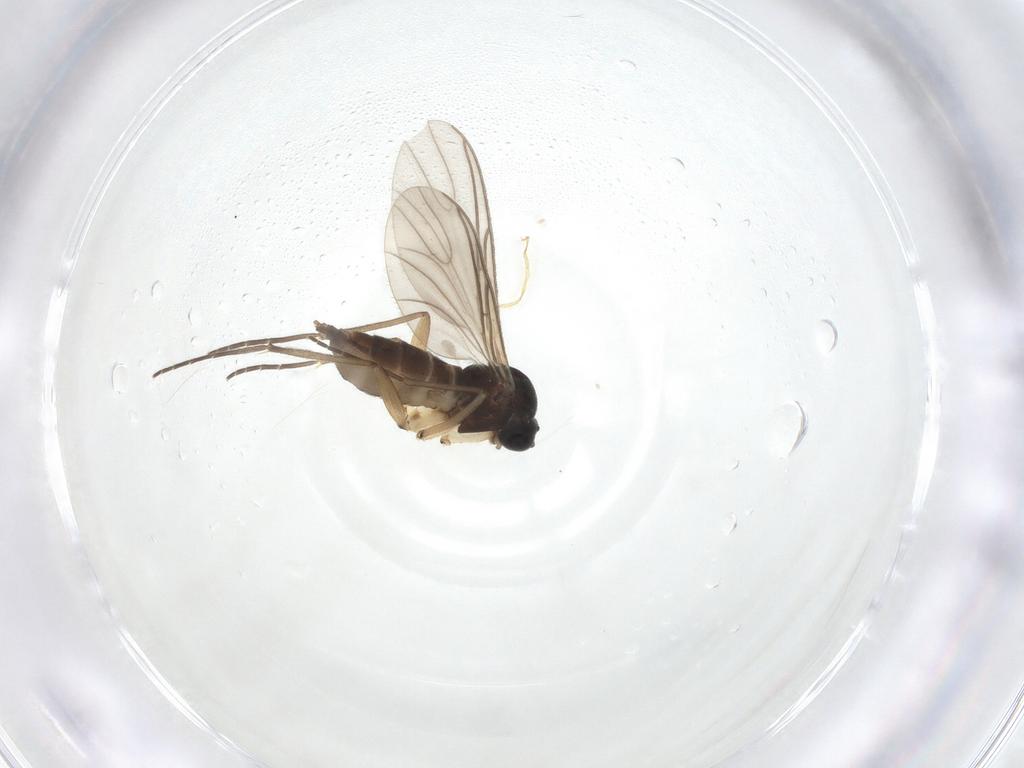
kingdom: Animalia
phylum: Arthropoda
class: Insecta
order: Diptera
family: Sciaridae
